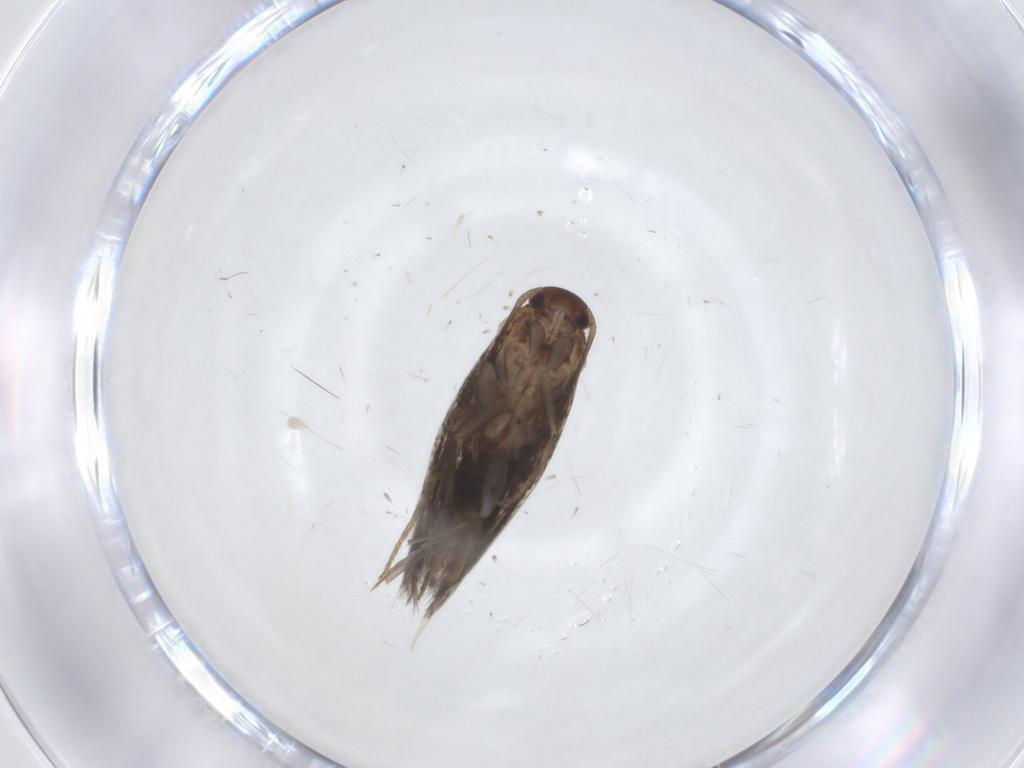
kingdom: Animalia
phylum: Arthropoda
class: Insecta
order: Lepidoptera
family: Elachistidae
